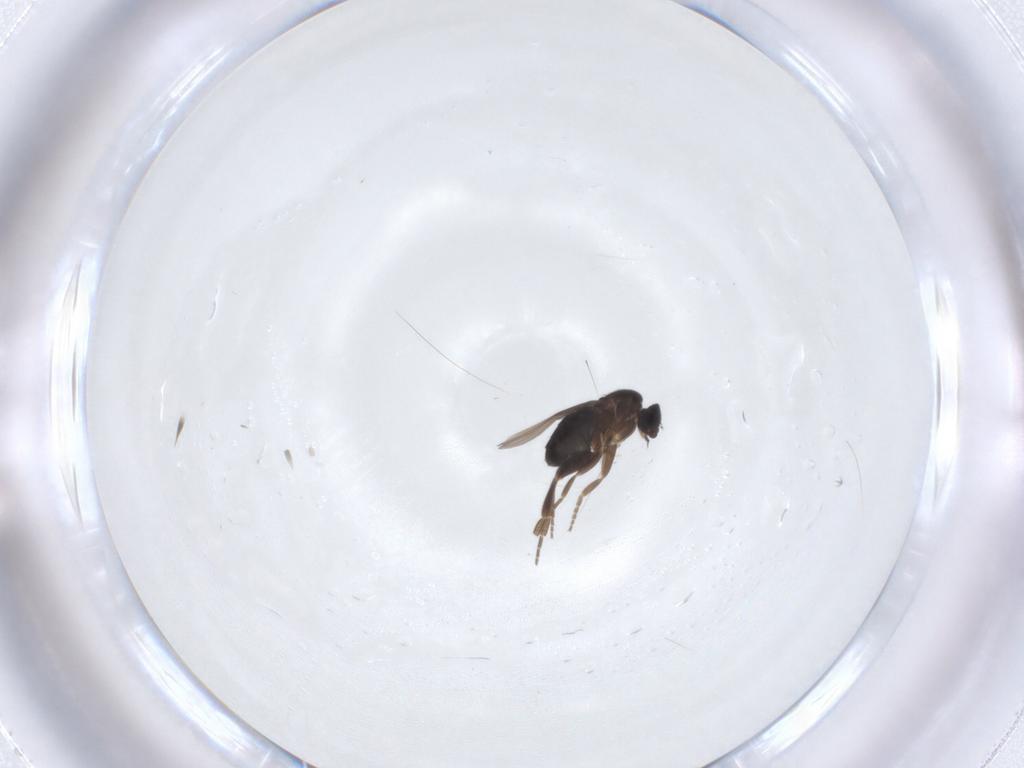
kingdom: Animalia
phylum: Arthropoda
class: Insecta
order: Diptera
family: Phoridae
